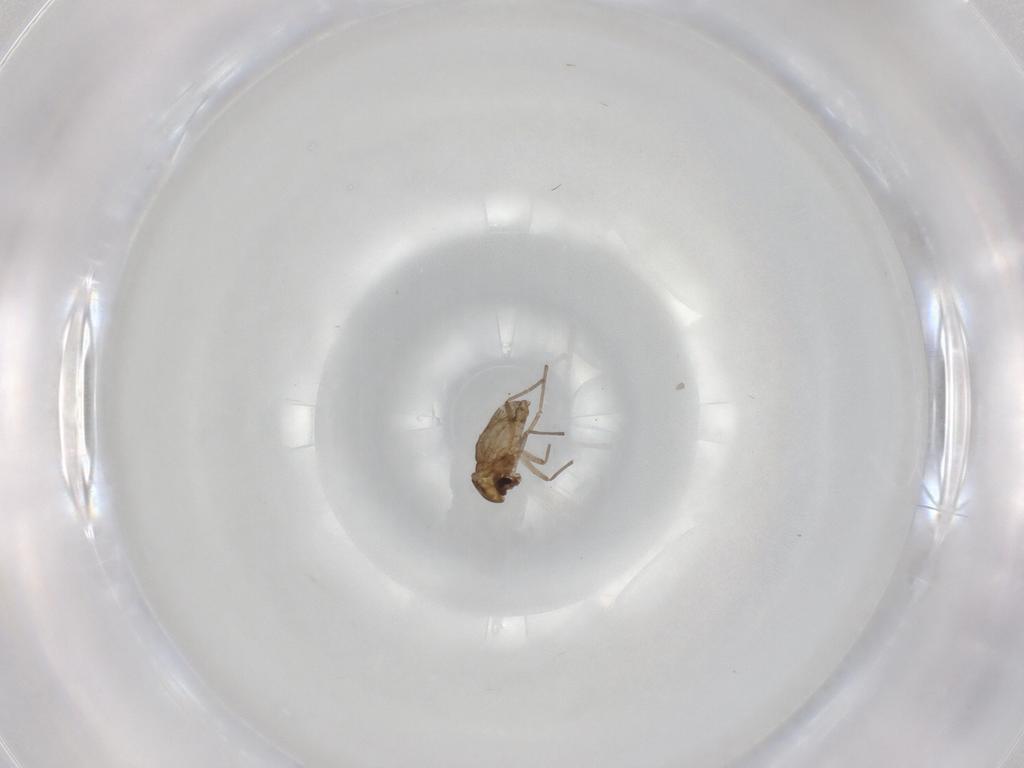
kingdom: Animalia
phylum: Arthropoda
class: Insecta
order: Diptera
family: Chironomidae
